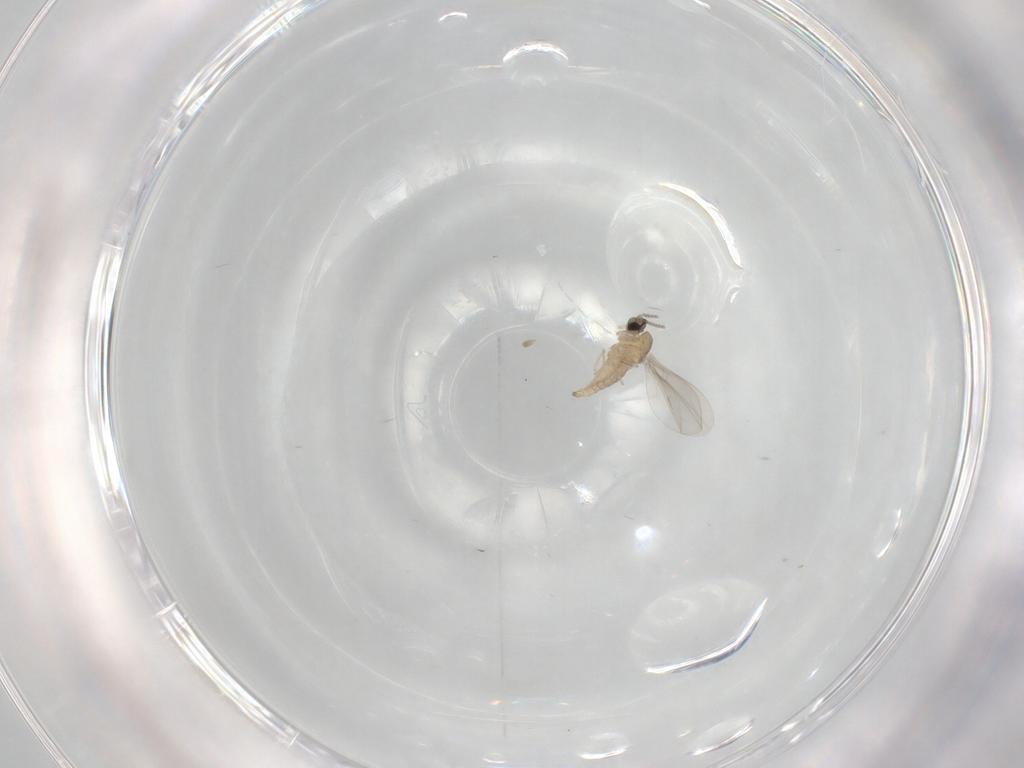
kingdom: Animalia
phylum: Arthropoda
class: Insecta
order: Diptera
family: Cecidomyiidae
